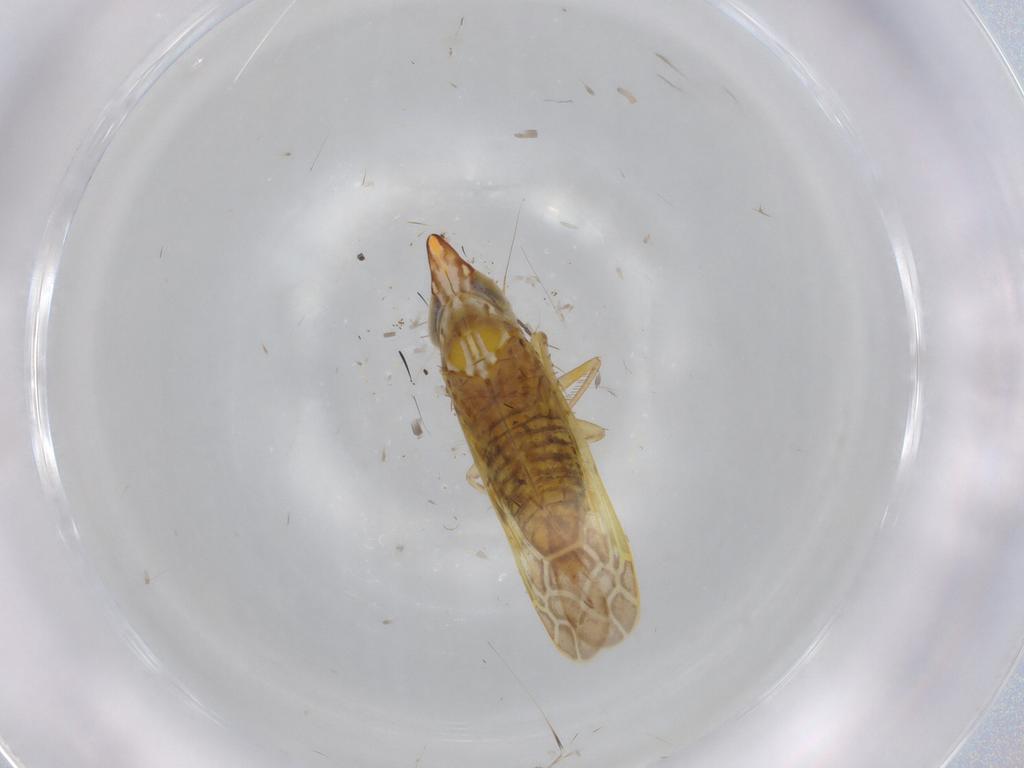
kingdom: Animalia
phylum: Arthropoda
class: Insecta
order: Hemiptera
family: Cicadellidae
